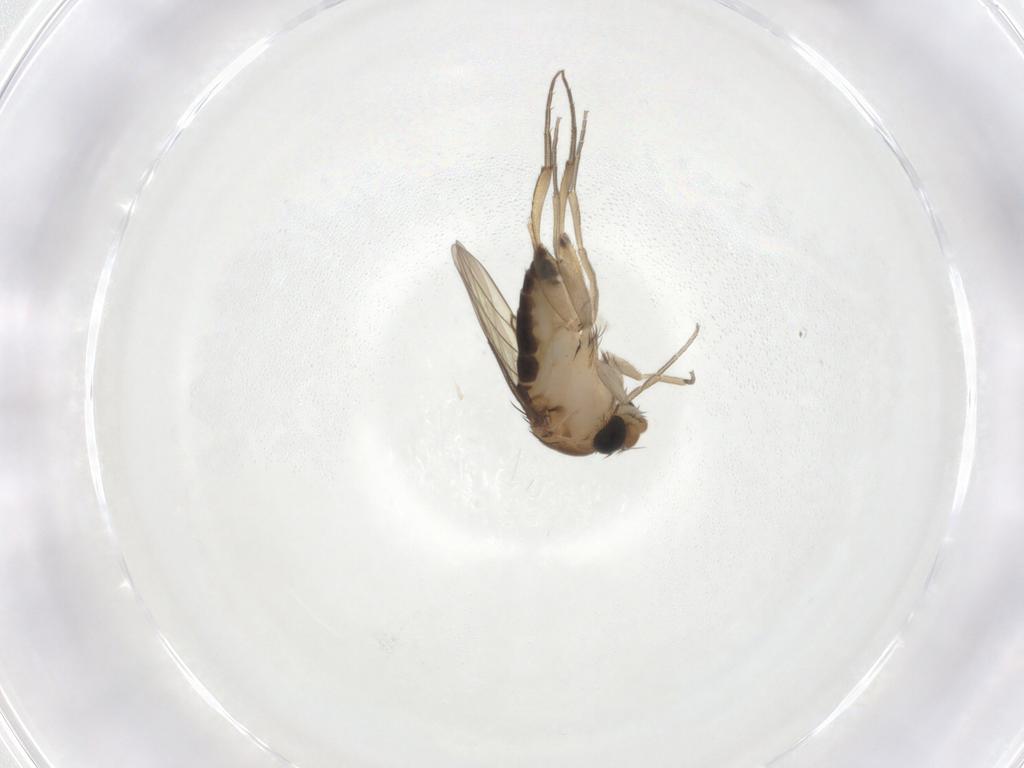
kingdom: Animalia
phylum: Arthropoda
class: Insecta
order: Diptera
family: Phoridae
